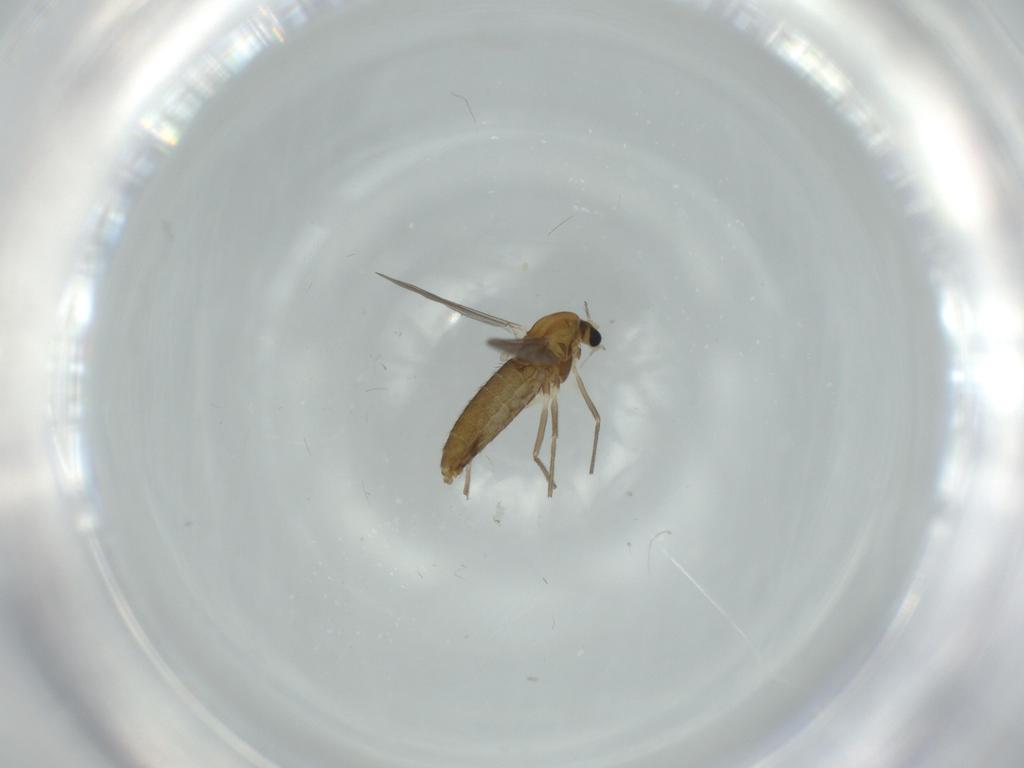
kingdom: Animalia
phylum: Arthropoda
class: Insecta
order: Diptera
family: Chironomidae
